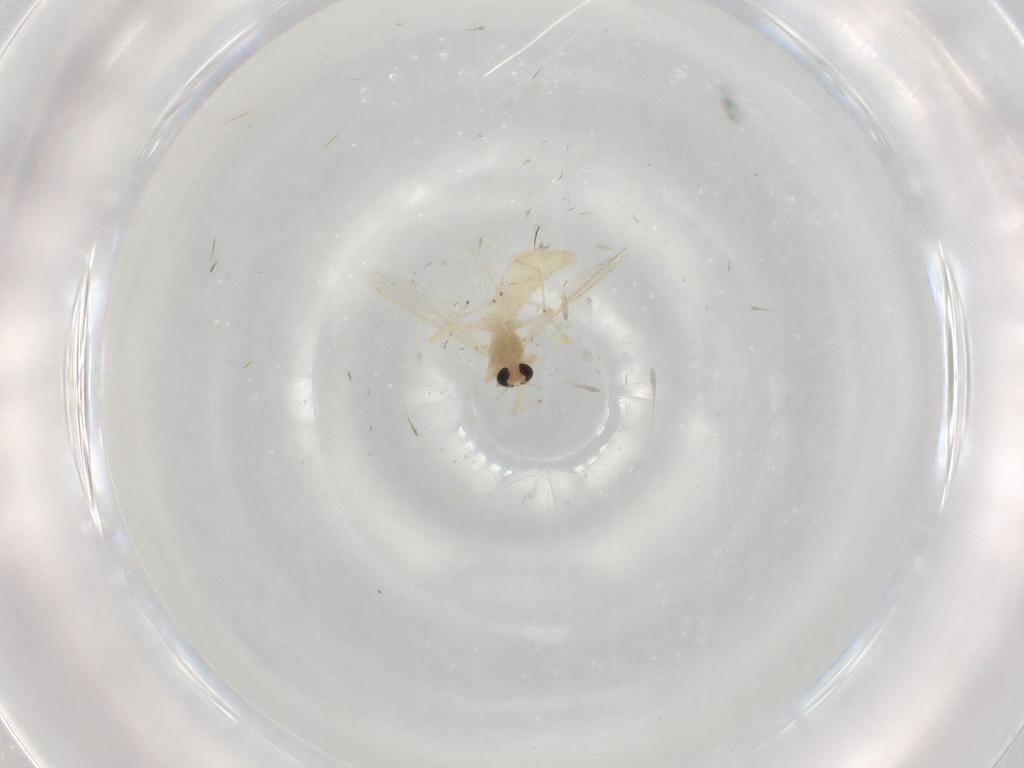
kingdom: Animalia
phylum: Arthropoda
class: Insecta
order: Diptera
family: Chironomidae
